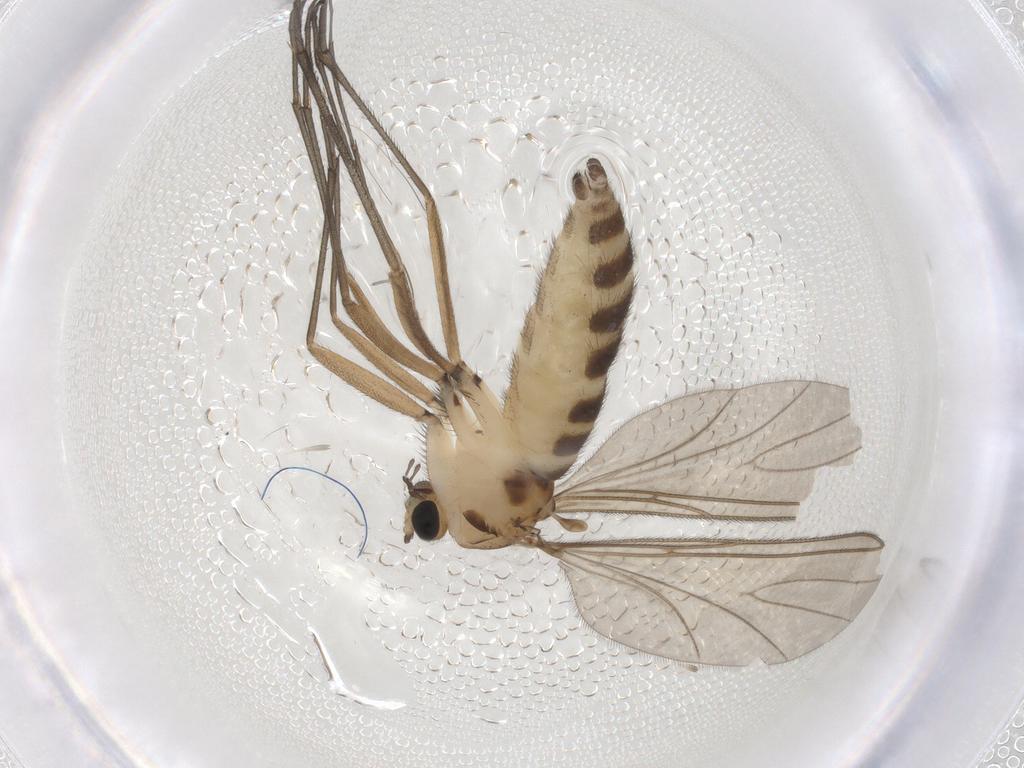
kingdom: Animalia
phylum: Arthropoda
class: Insecta
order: Diptera
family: Sciaridae
